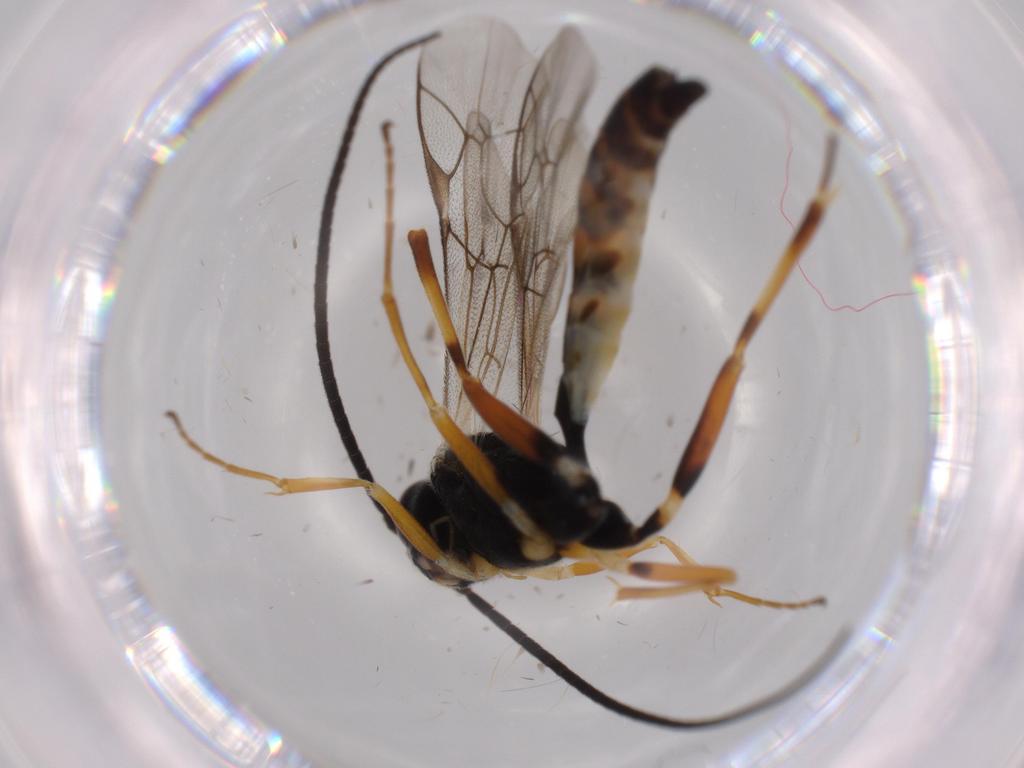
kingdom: Animalia
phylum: Arthropoda
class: Insecta
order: Hymenoptera
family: Ichneumonidae
